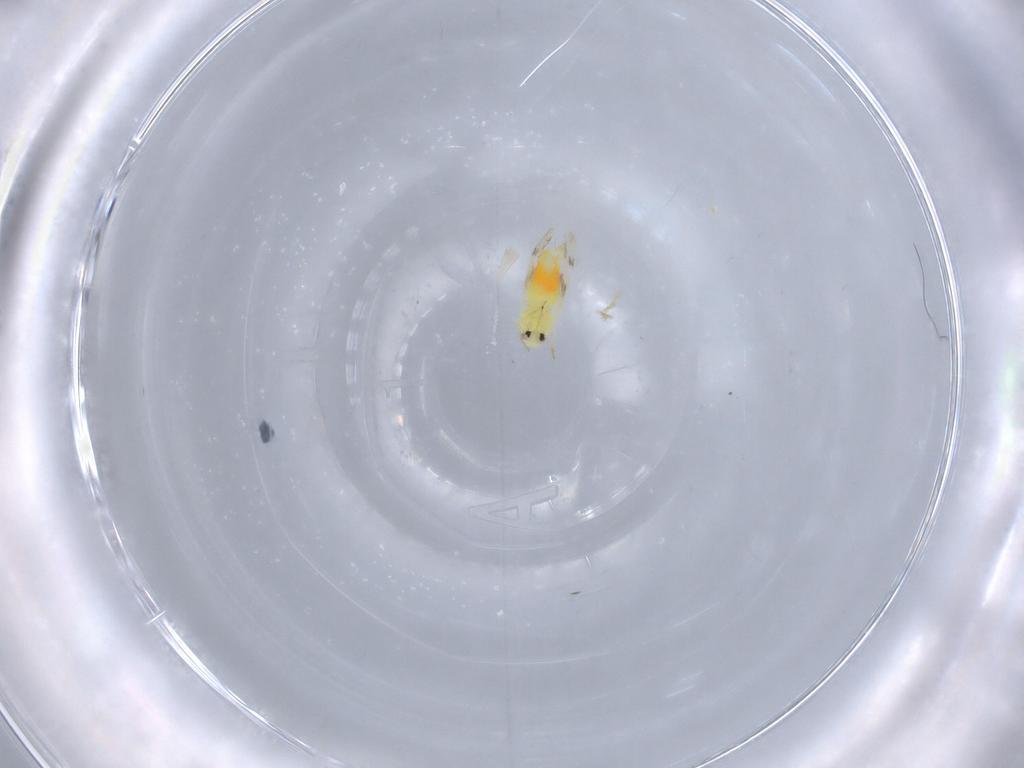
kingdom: Animalia
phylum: Arthropoda
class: Insecta
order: Hemiptera
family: Aleyrodidae
